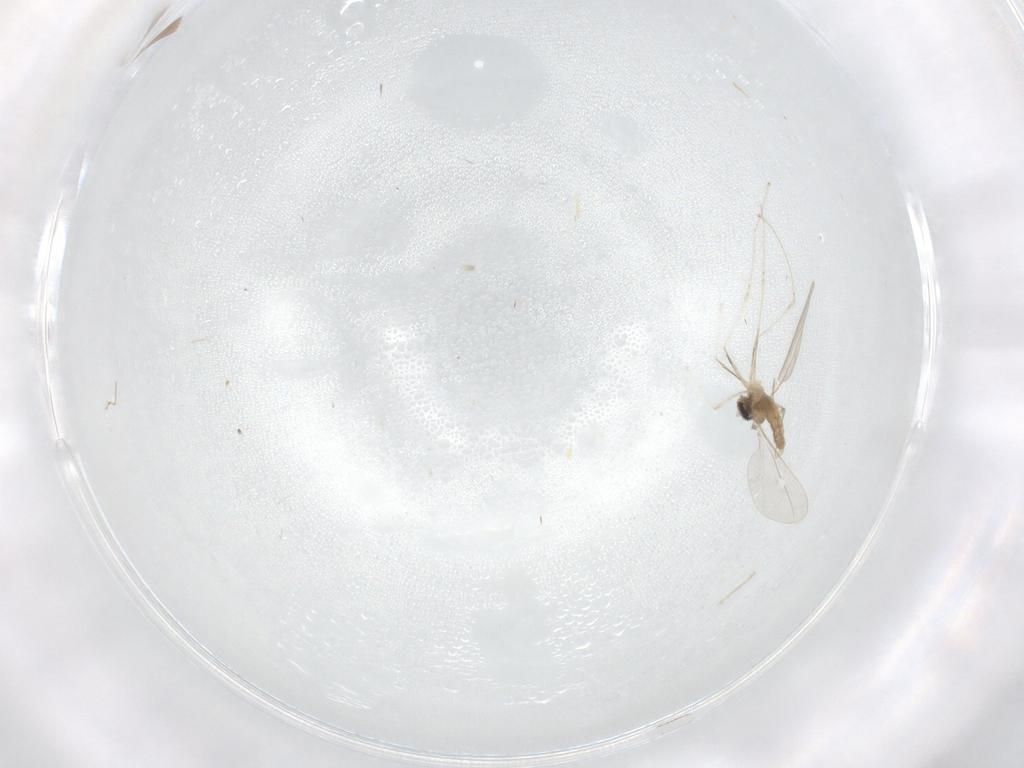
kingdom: Animalia
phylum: Arthropoda
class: Insecta
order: Diptera
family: Cecidomyiidae
